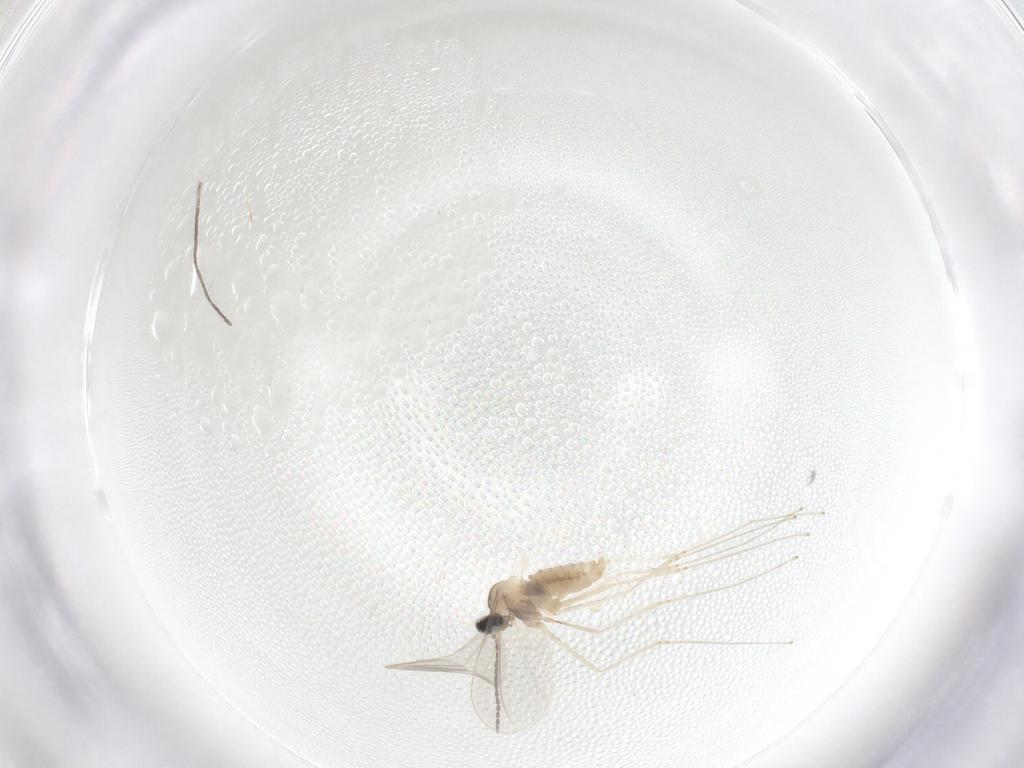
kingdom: Animalia
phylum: Arthropoda
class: Insecta
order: Diptera
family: Cecidomyiidae
